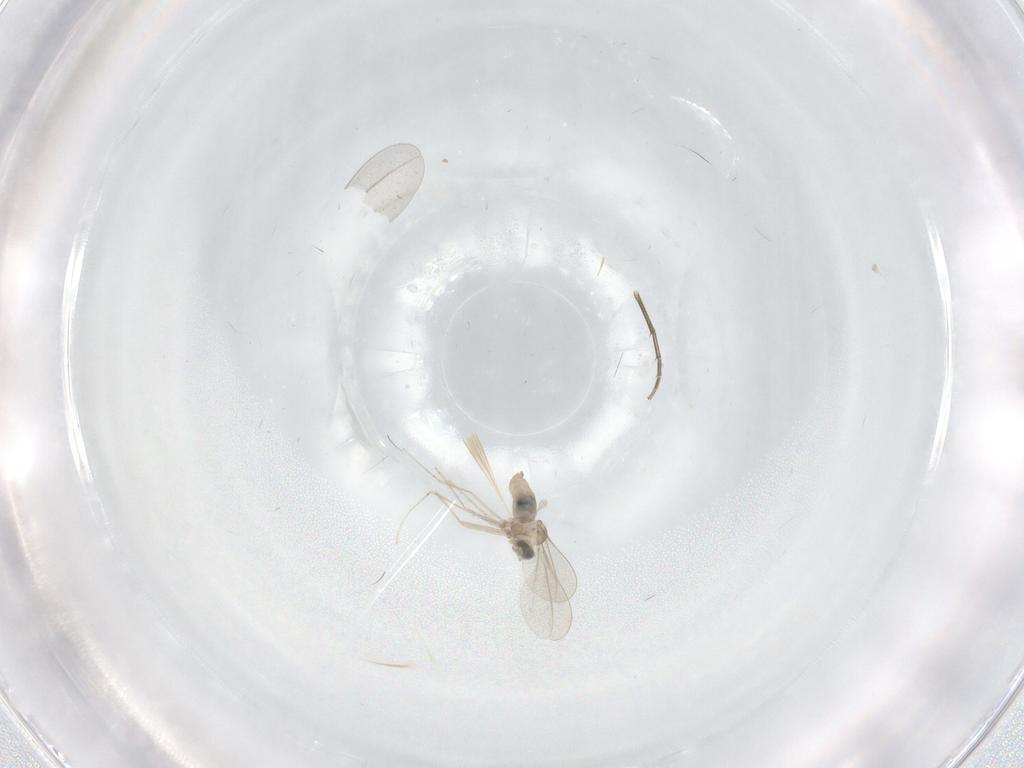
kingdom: Animalia
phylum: Arthropoda
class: Insecta
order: Diptera
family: Cecidomyiidae
